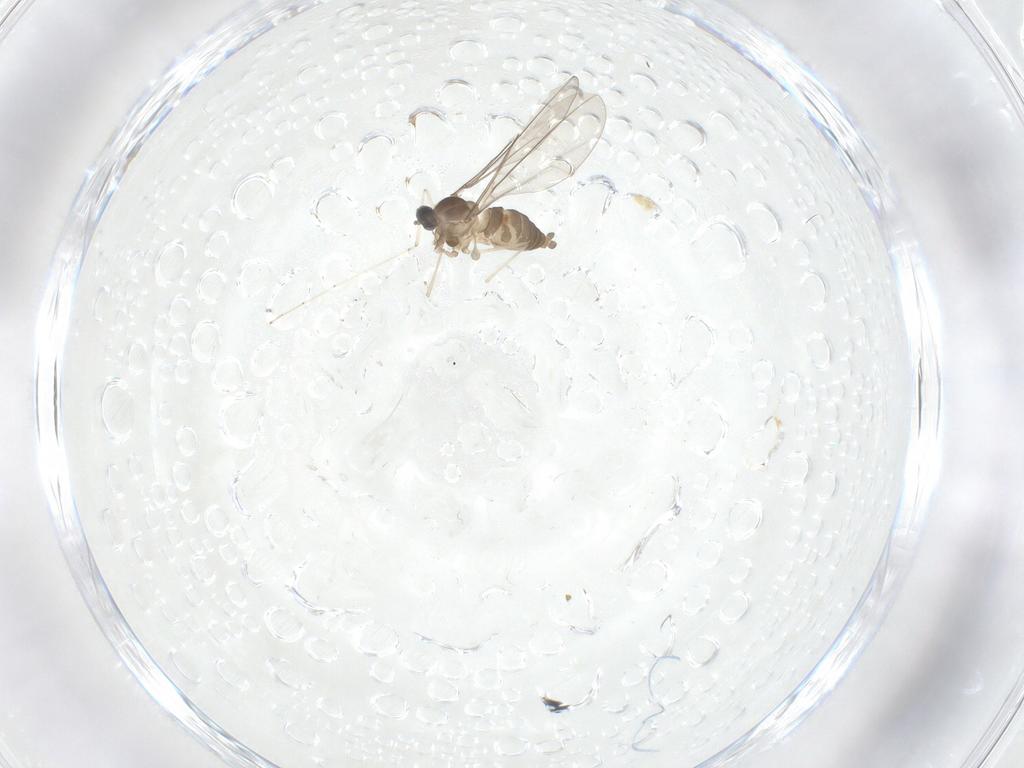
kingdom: Animalia
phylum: Arthropoda
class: Insecta
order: Diptera
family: Cecidomyiidae
